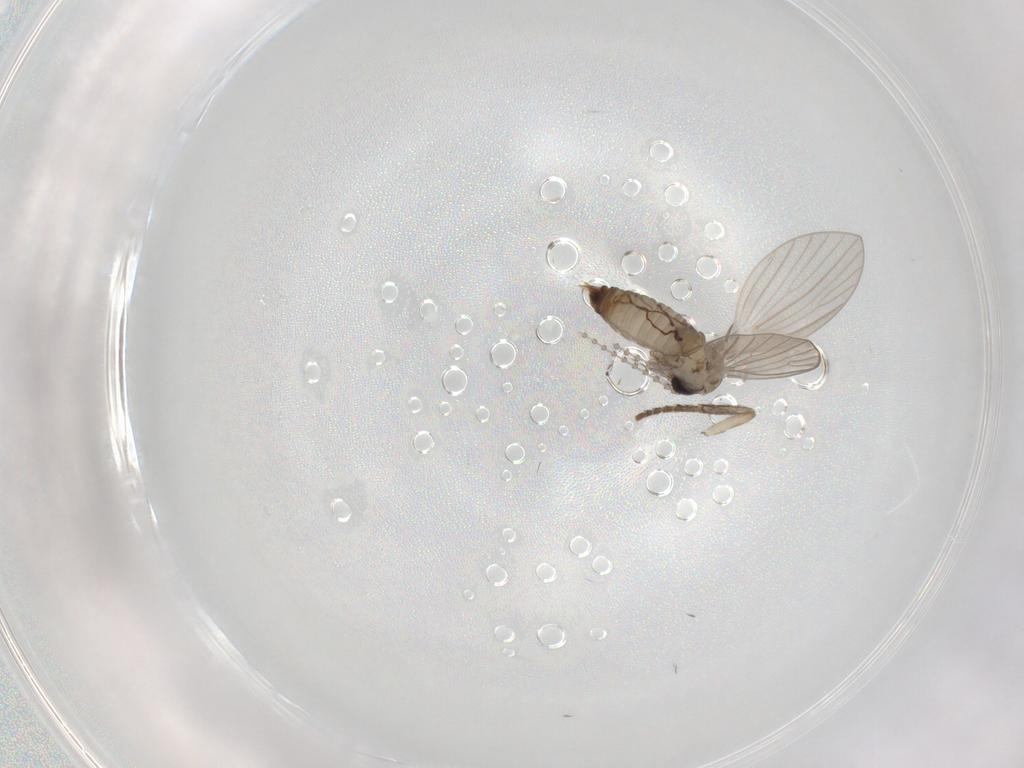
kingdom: Animalia
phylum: Arthropoda
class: Insecta
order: Diptera
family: Psychodidae
